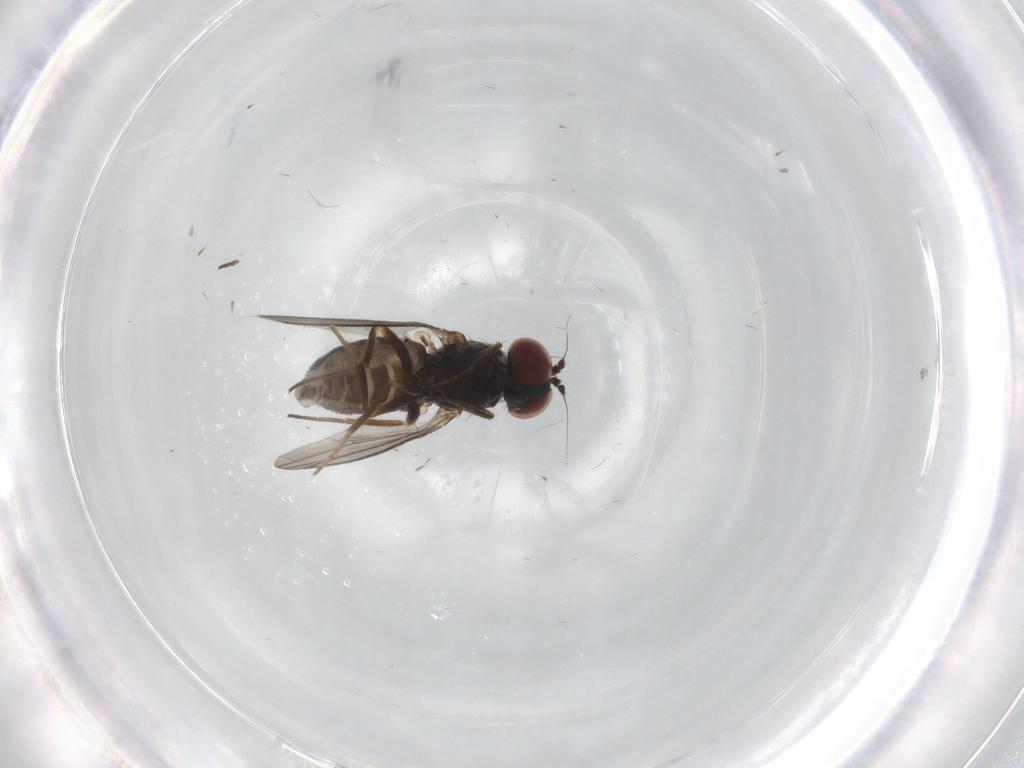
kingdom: Animalia
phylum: Arthropoda
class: Insecta
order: Diptera
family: Dolichopodidae
